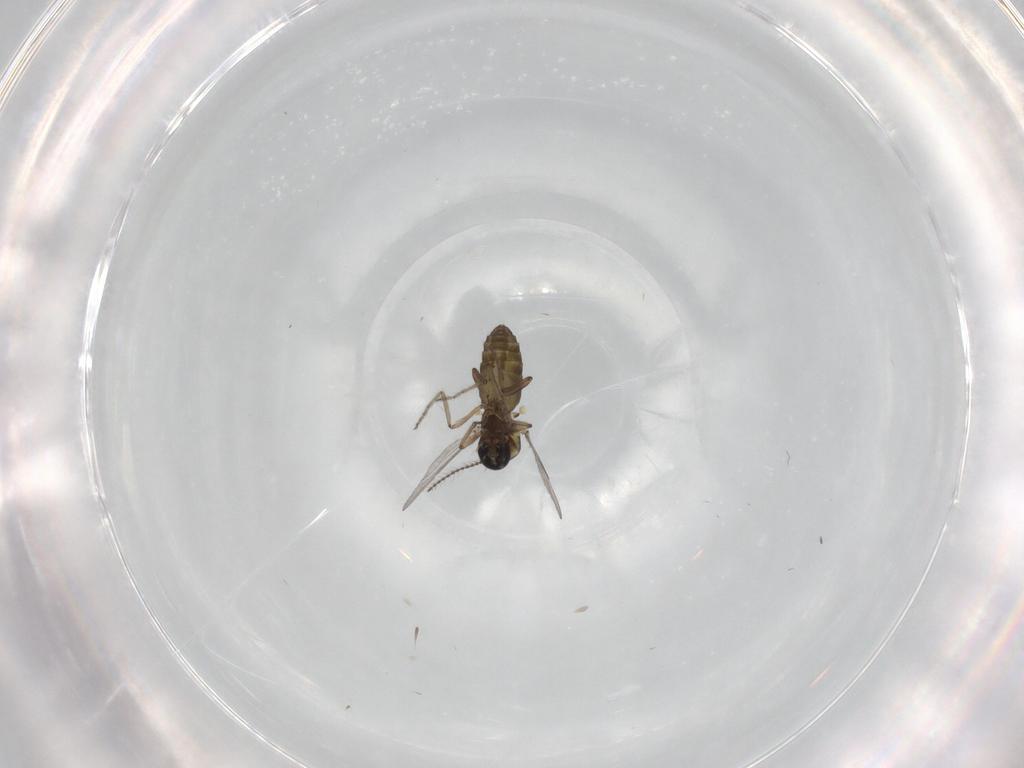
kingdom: Animalia
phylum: Arthropoda
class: Insecta
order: Diptera
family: Ceratopogonidae
